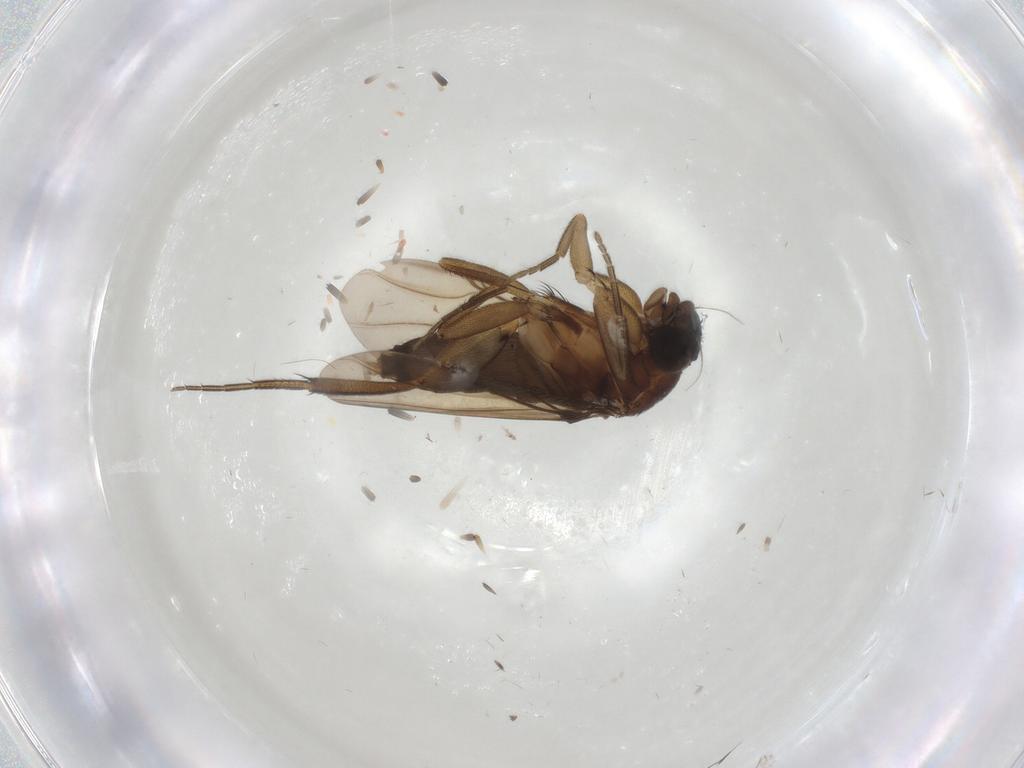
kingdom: Animalia
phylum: Arthropoda
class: Insecta
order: Diptera
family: Phoridae
